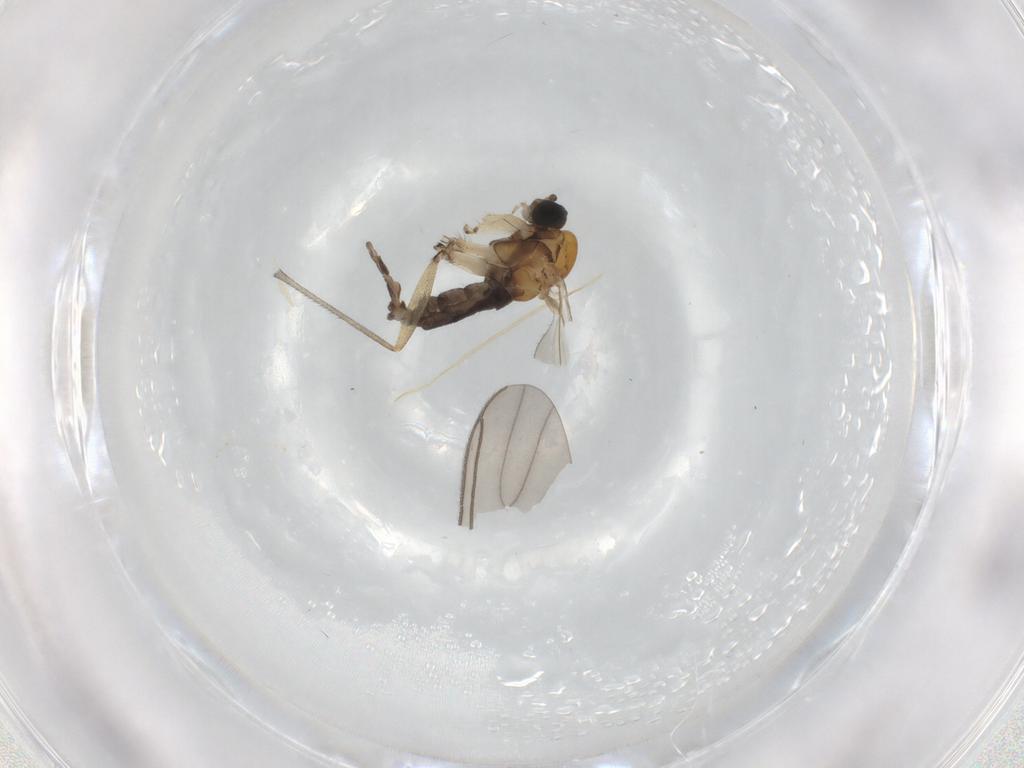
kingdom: Animalia
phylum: Arthropoda
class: Insecta
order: Diptera
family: Sciaridae
